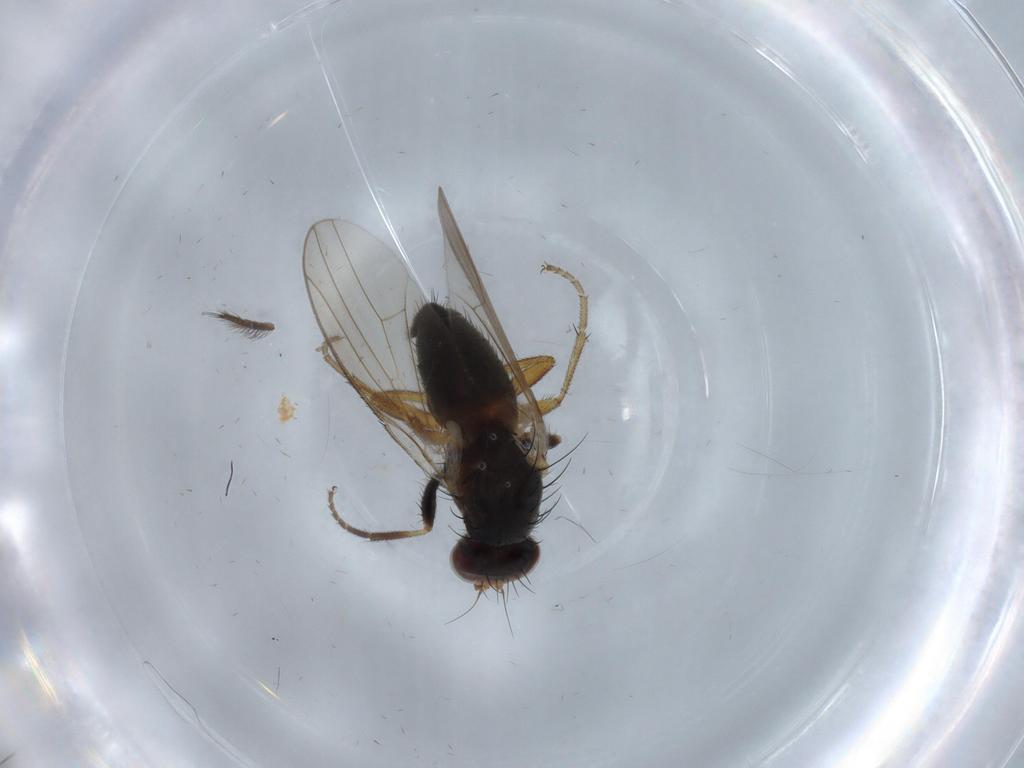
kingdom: Animalia
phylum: Arthropoda
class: Insecta
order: Diptera
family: Heleomyzidae
